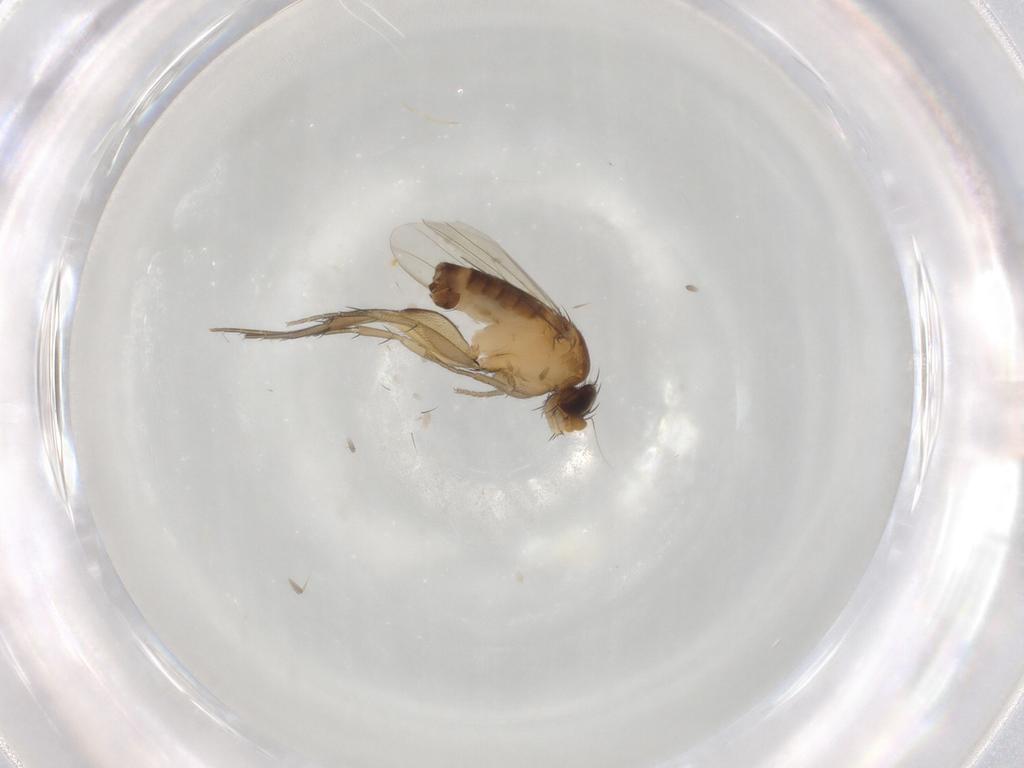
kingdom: Animalia
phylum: Arthropoda
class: Insecta
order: Diptera
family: Phoridae
